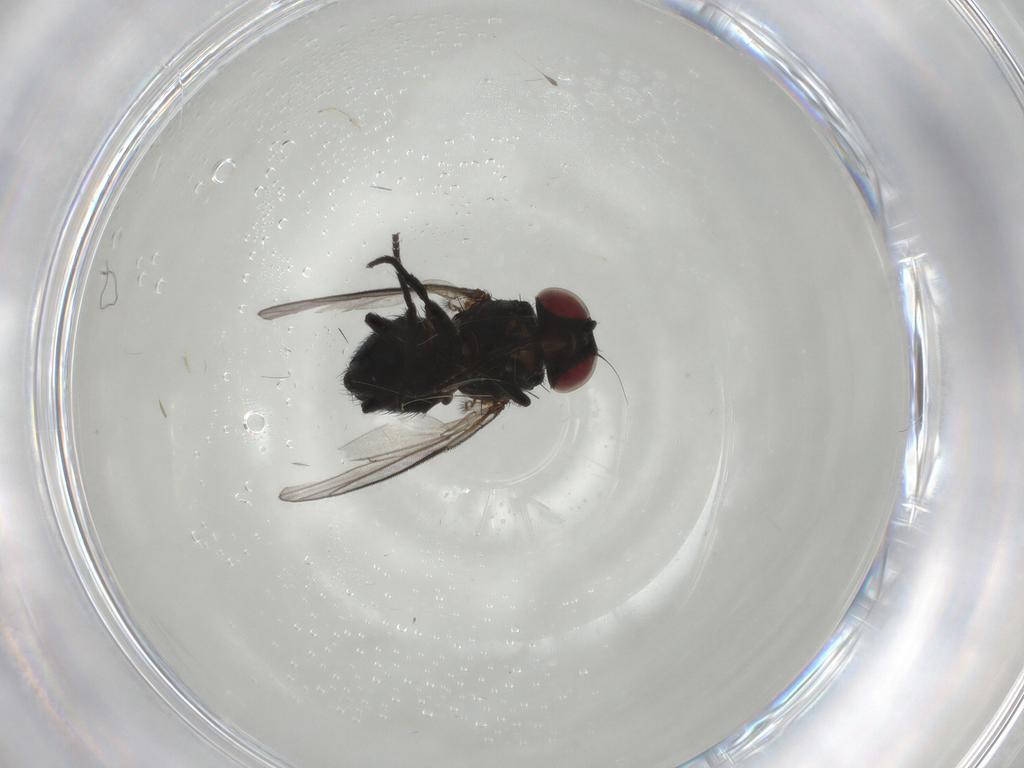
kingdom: Animalia
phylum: Arthropoda
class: Insecta
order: Diptera
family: Agromyzidae
